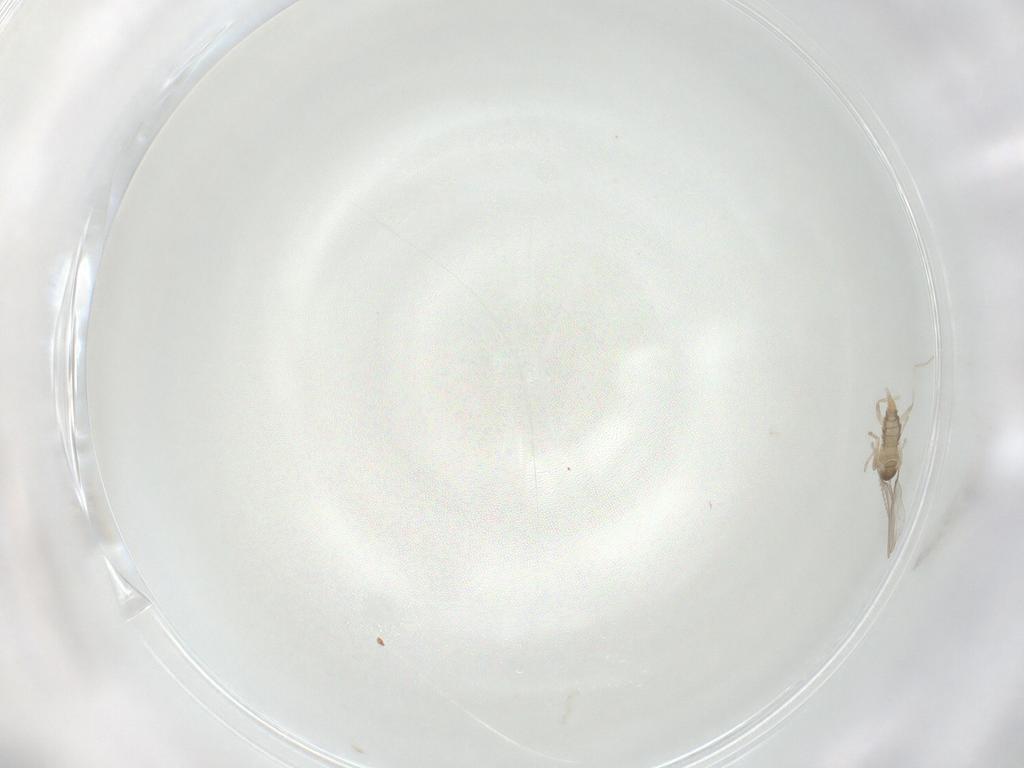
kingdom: Animalia
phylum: Arthropoda
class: Insecta
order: Diptera
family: Cecidomyiidae
